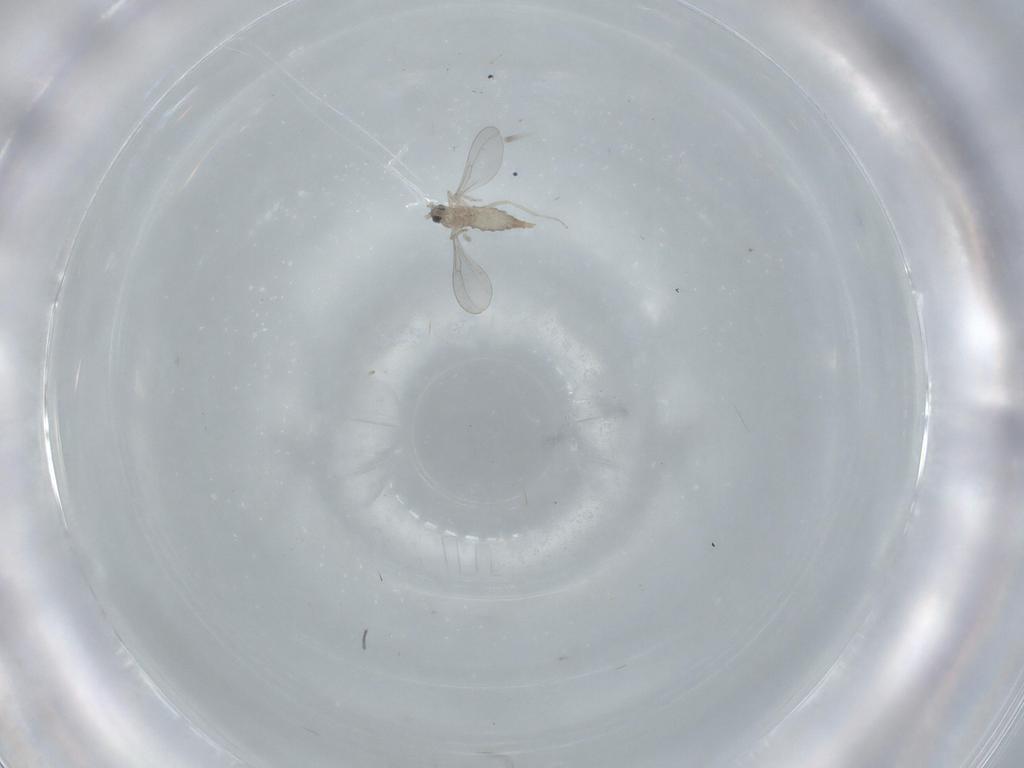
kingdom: Animalia
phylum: Arthropoda
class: Insecta
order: Diptera
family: Cecidomyiidae
